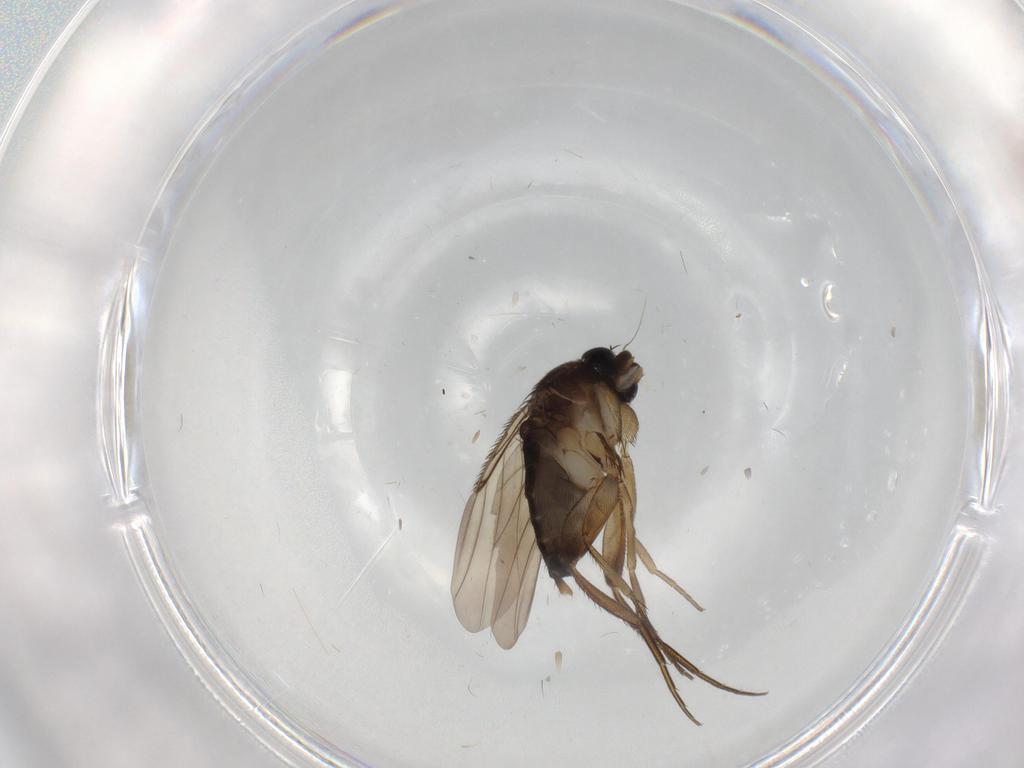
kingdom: Animalia
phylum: Arthropoda
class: Insecta
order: Diptera
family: Phoridae
